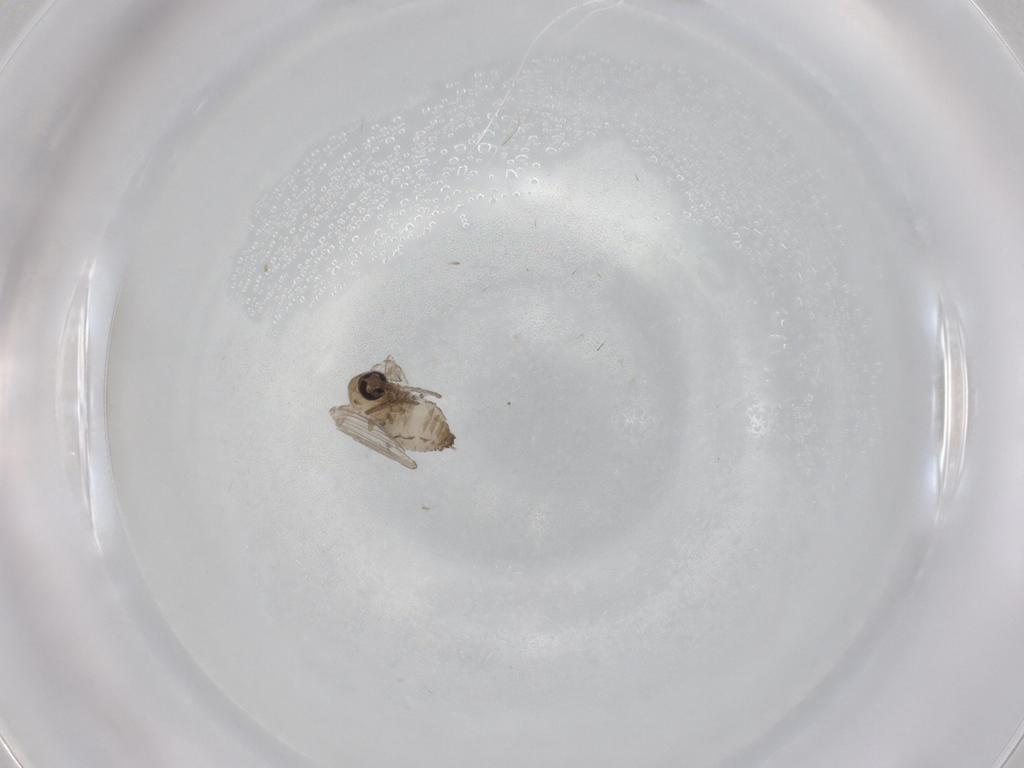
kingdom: Animalia
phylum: Arthropoda
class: Insecta
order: Diptera
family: Psychodidae
